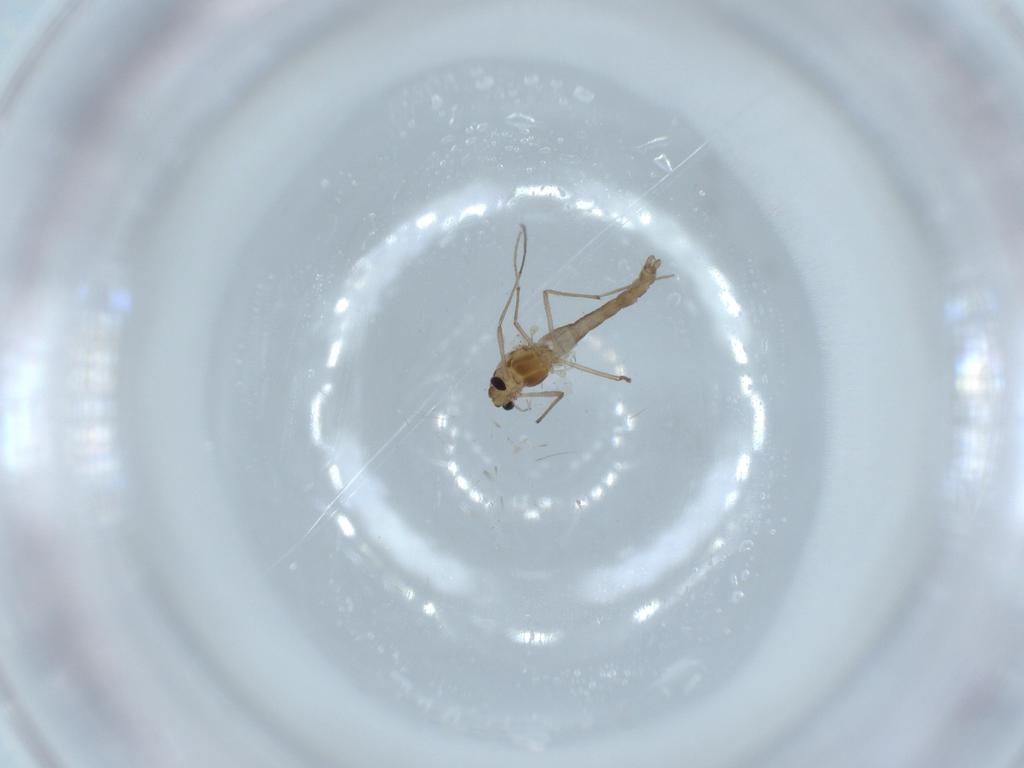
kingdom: Animalia
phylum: Arthropoda
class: Insecta
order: Diptera
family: Chironomidae
